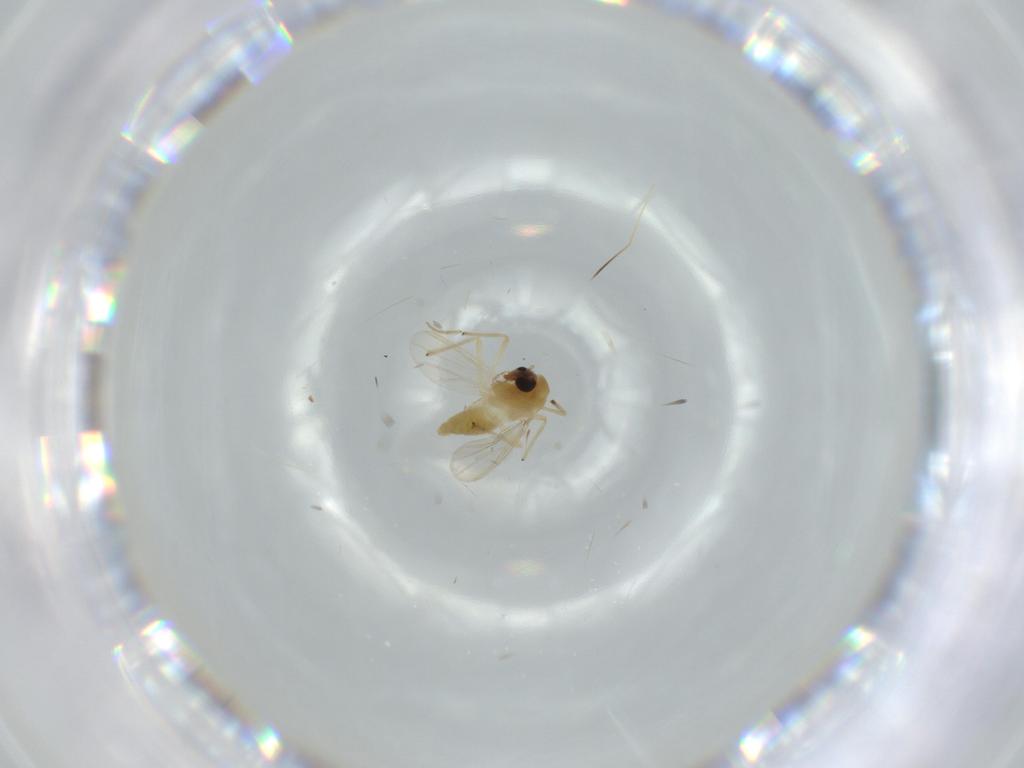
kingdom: Animalia
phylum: Arthropoda
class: Insecta
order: Diptera
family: Chironomidae
